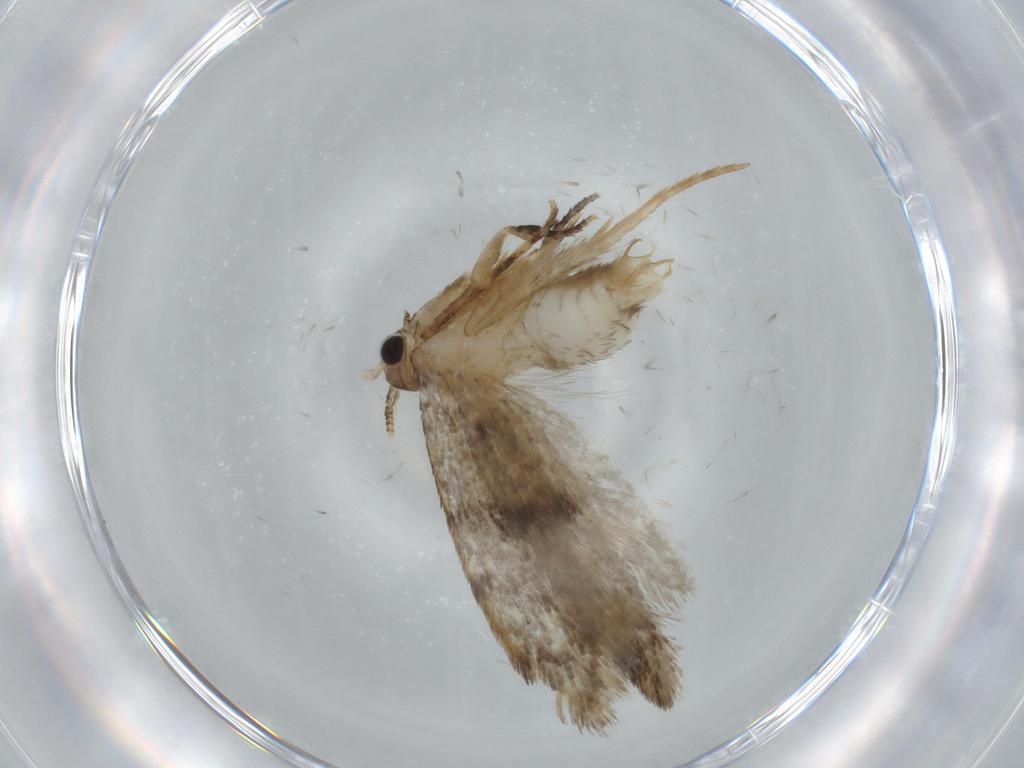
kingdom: Animalia
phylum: Arthropoda
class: Insecta
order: Lepidoptera
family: Tineidae
